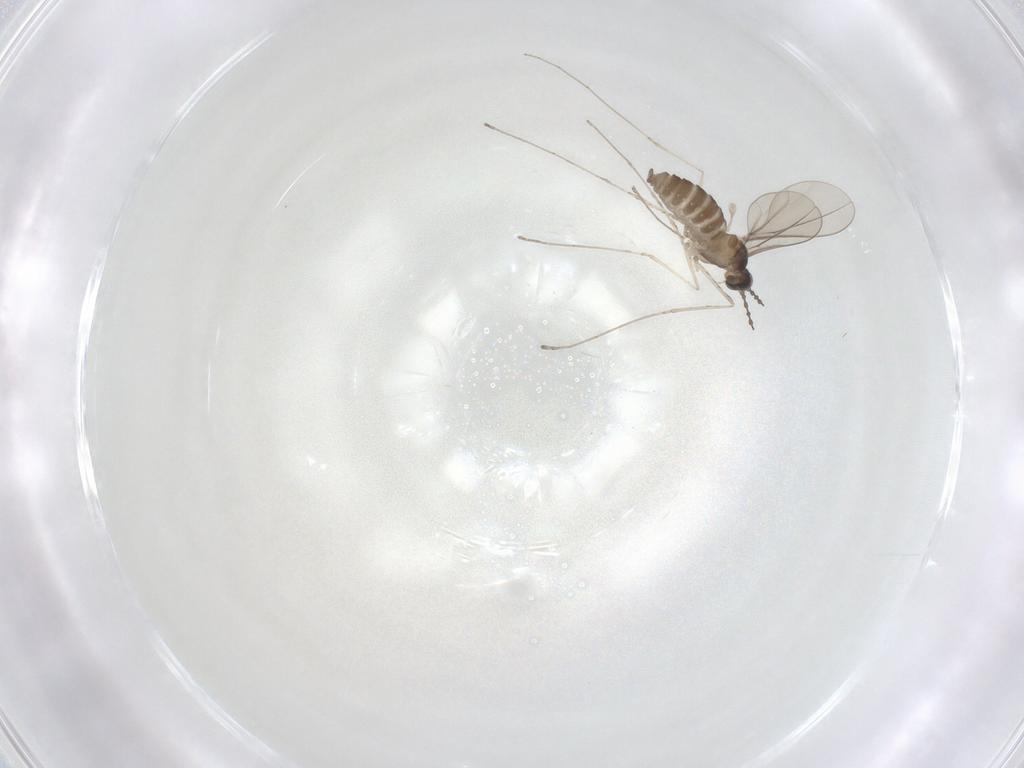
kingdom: Animalia
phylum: Arthropoda
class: Insecta
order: Diptera
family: Cecidomyiidae
